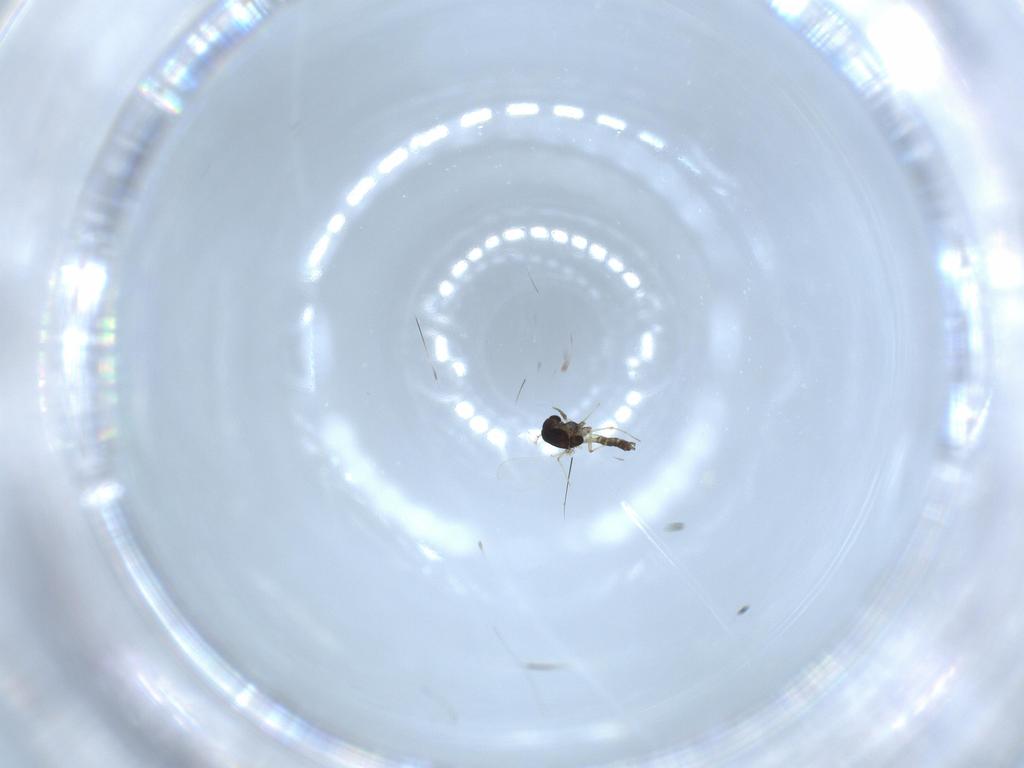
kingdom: Animalia
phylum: Arthropoda
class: Insecta
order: Diptera
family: Chironomidae
